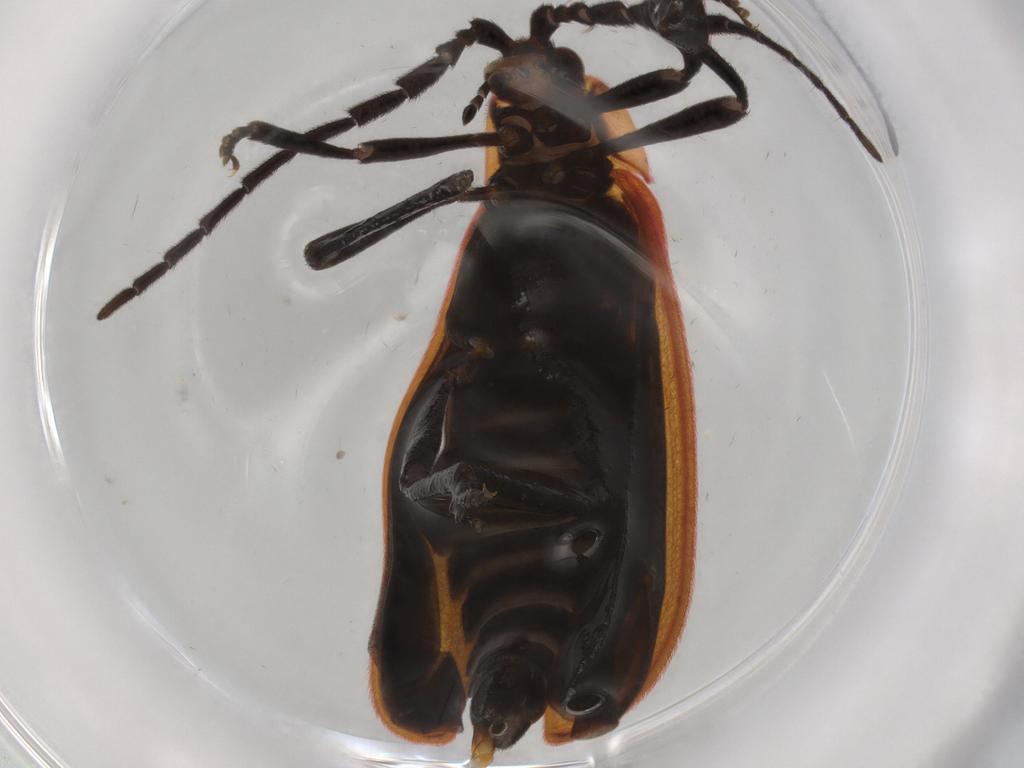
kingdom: Animalia
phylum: Arthropoda
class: Insecta
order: Coleoptera
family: Lycidae
